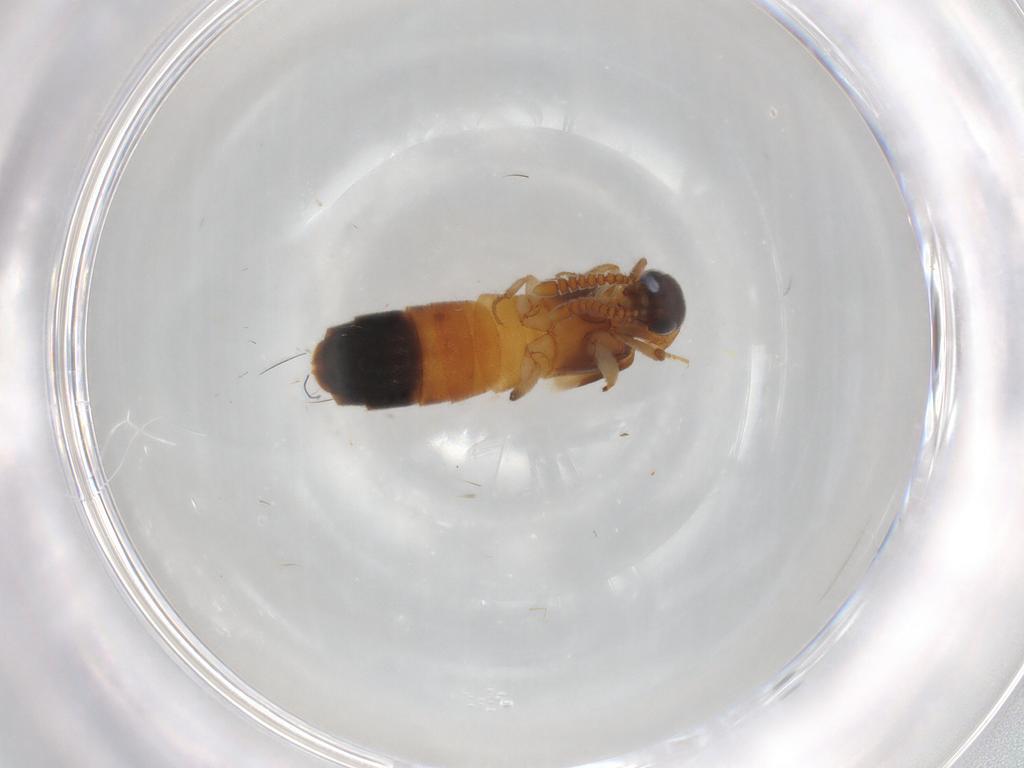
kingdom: Animalia
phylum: Arthropoda
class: Insecta
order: Coleoptera
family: Staphylinidae
